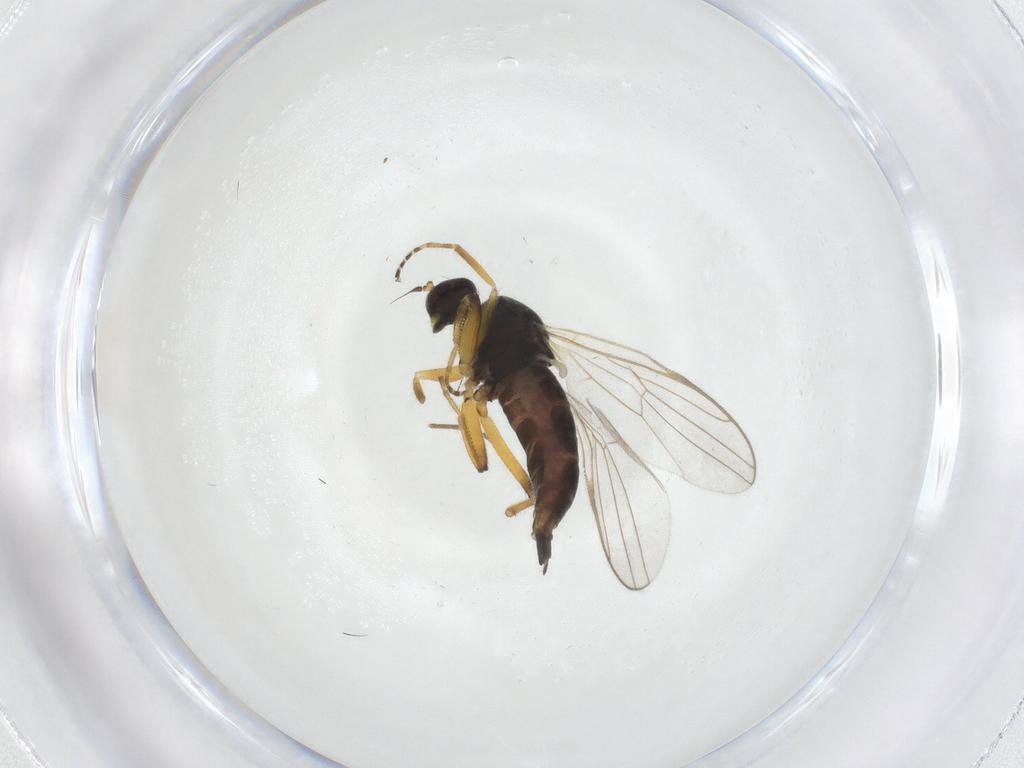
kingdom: Animalia
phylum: Arthropoda
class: Insecta
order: Diptera
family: Hybotidae
